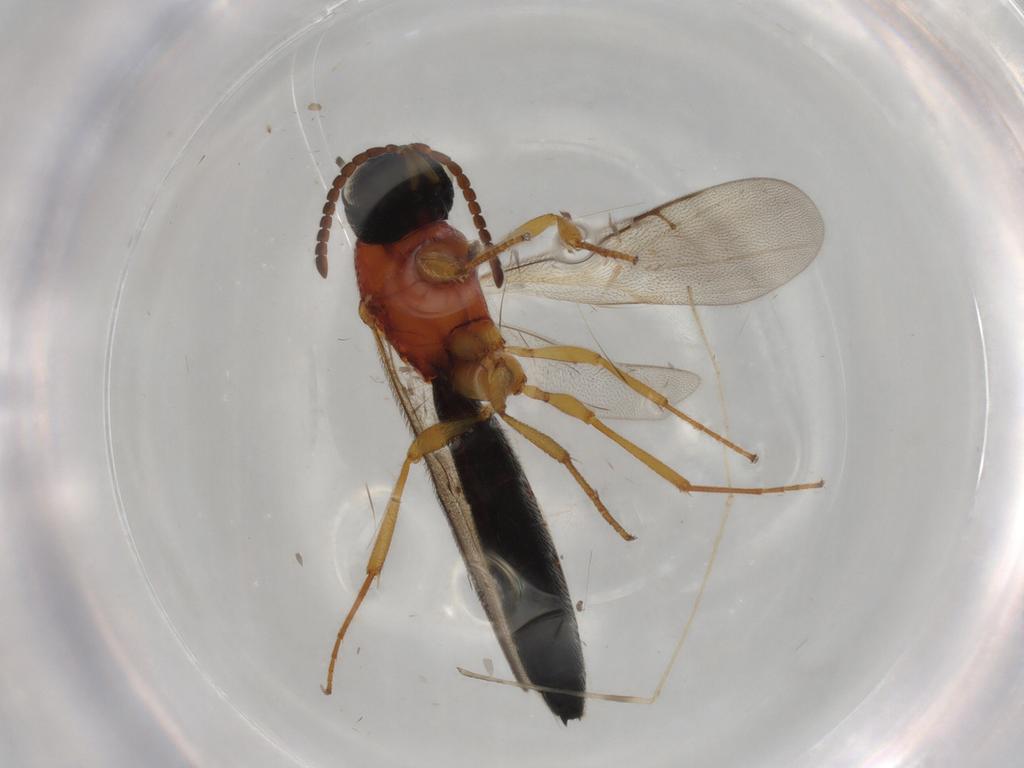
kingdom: Animalia
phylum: Arthropoda
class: Insecta
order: Hymenoptera
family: Scelionidae
